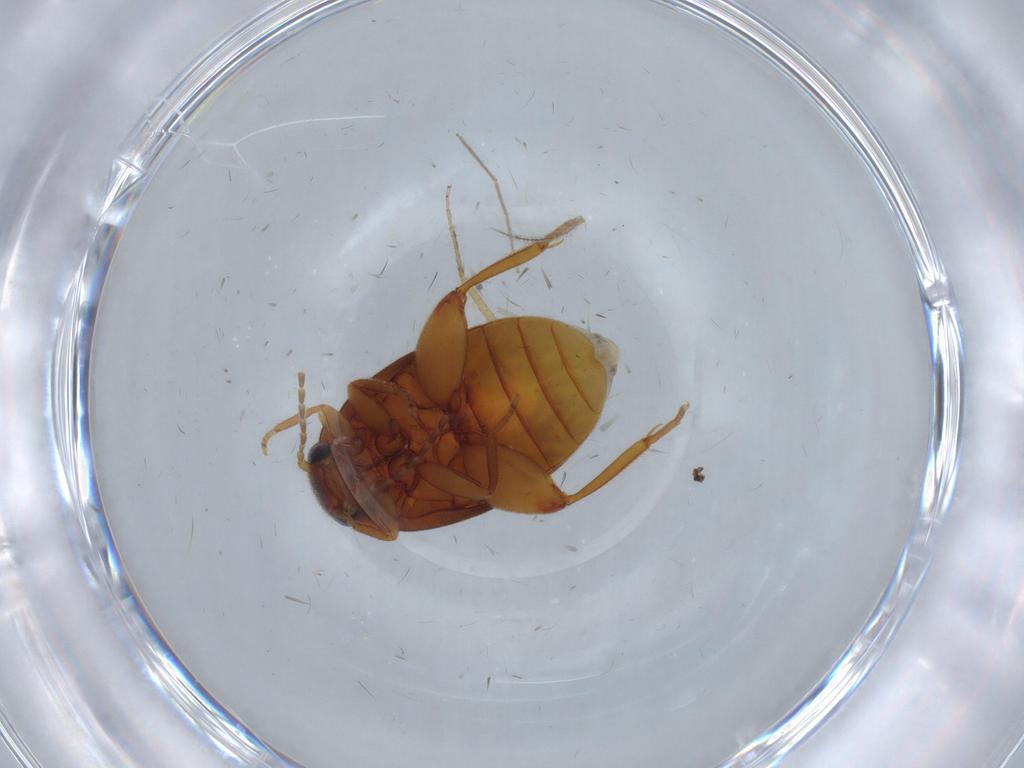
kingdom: Animalia
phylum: Arthropoda
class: Insecta
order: Coleoptera
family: Scirtidae
